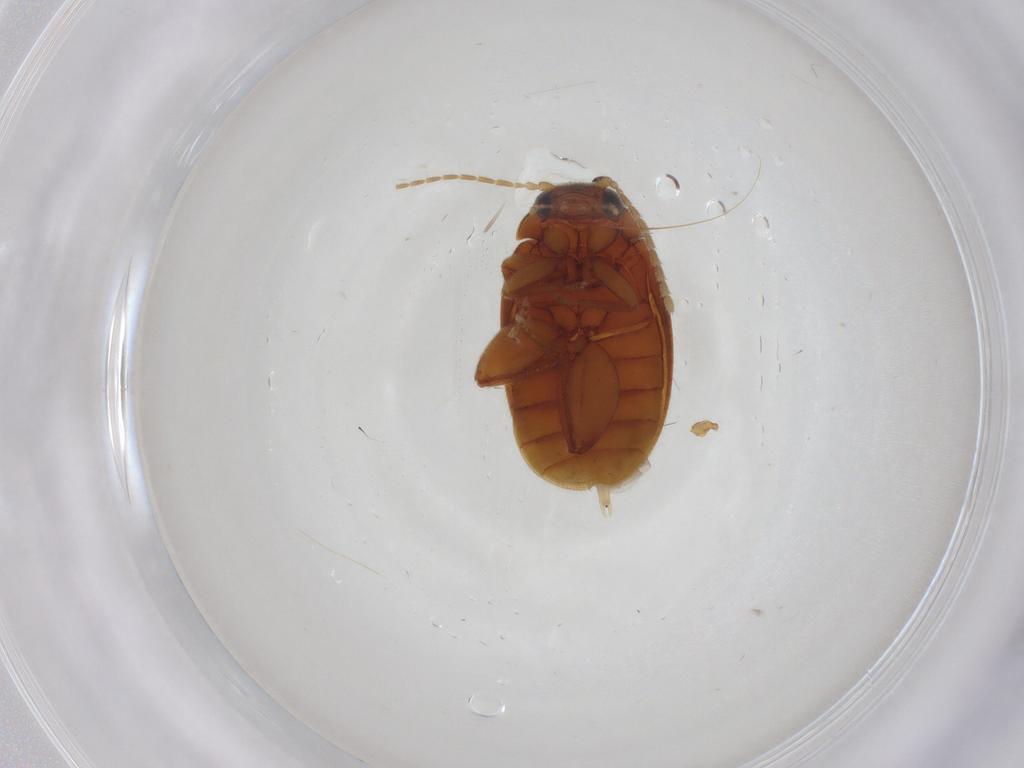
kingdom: Animalia
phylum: Arthropoda
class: Insecta
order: Coleoptera
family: Scirtidae
